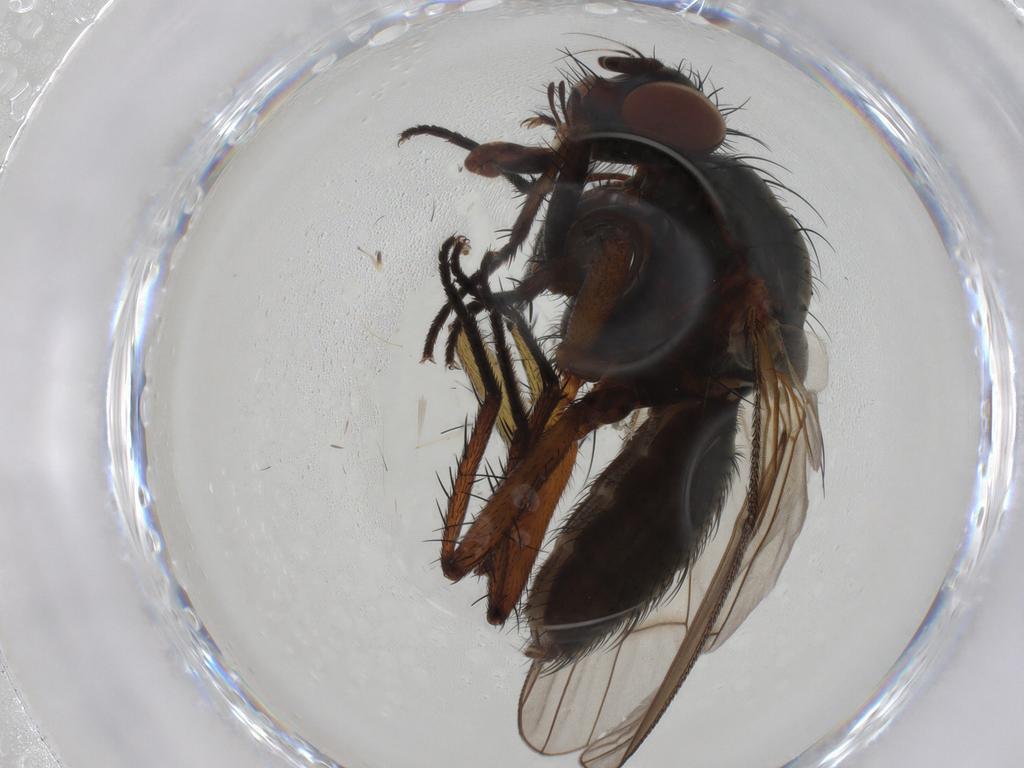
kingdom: Animalia
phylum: Arthropoda
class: Insecta
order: Diptera
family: Anthomyiidae
